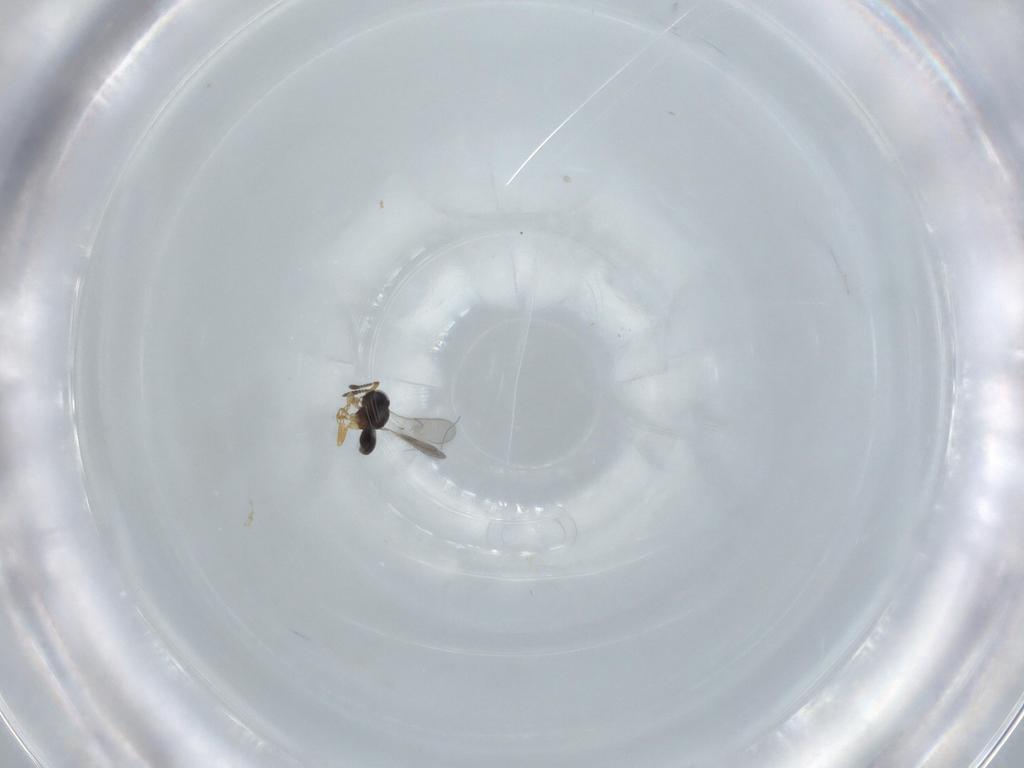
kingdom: Animalia
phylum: Arthropoda
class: Insecta
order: Hymenoptera
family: Scelionidae
